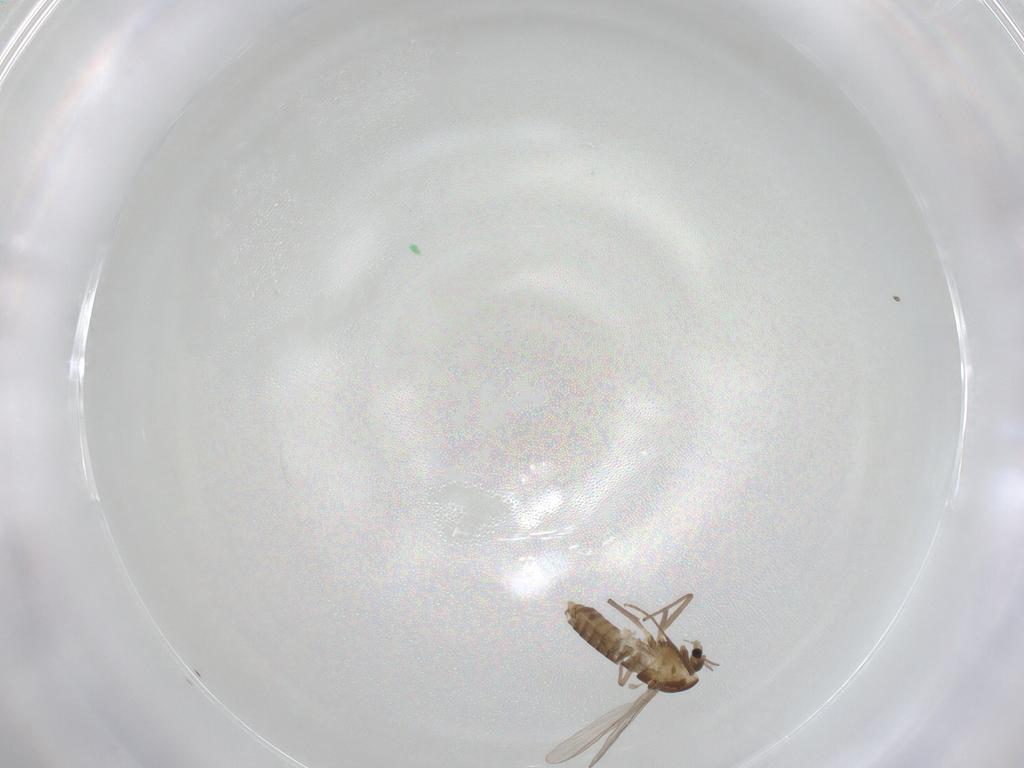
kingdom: Animalia
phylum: Arthropoda
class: Insecta
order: Diptera
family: Chironomidae
